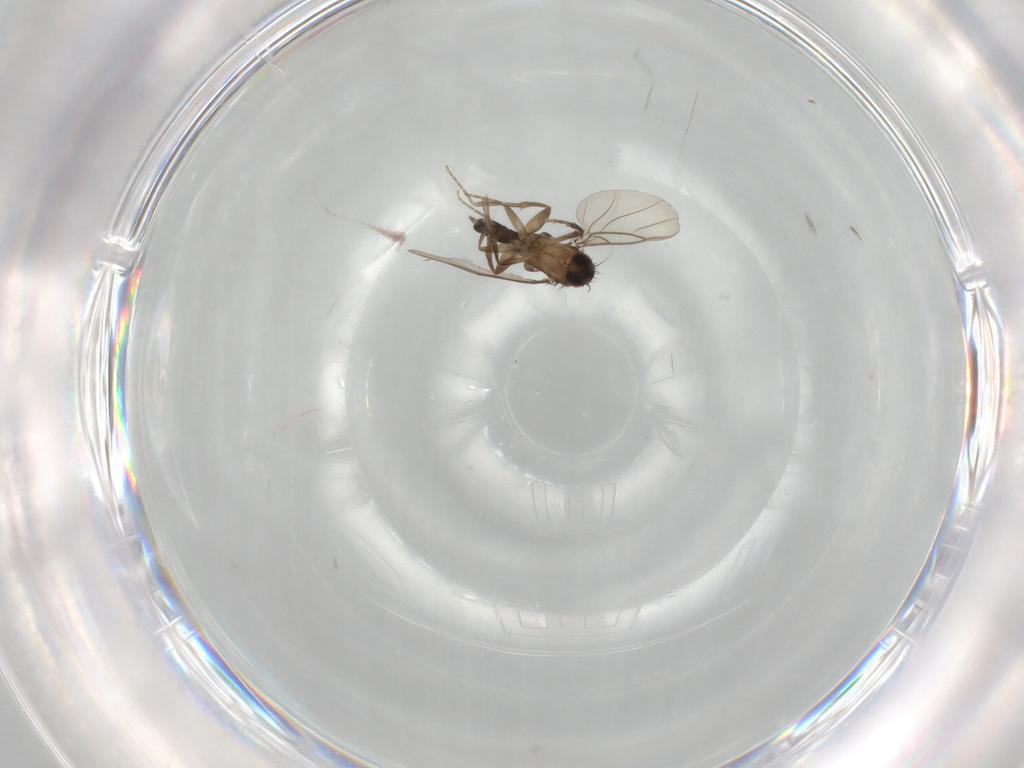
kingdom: Animalia
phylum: Arthropoda
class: Insecta
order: Diptera
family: Phoridae
